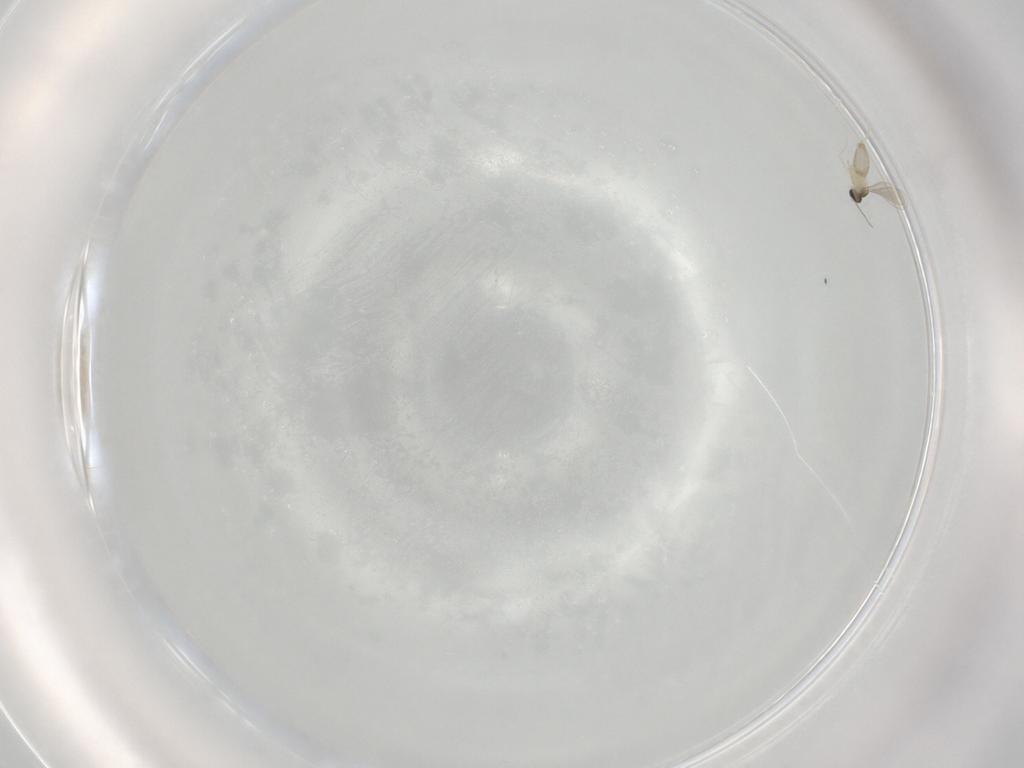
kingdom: Animalia
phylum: Arthropoda
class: Insecta
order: Diptera
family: Cecidomyiidae
